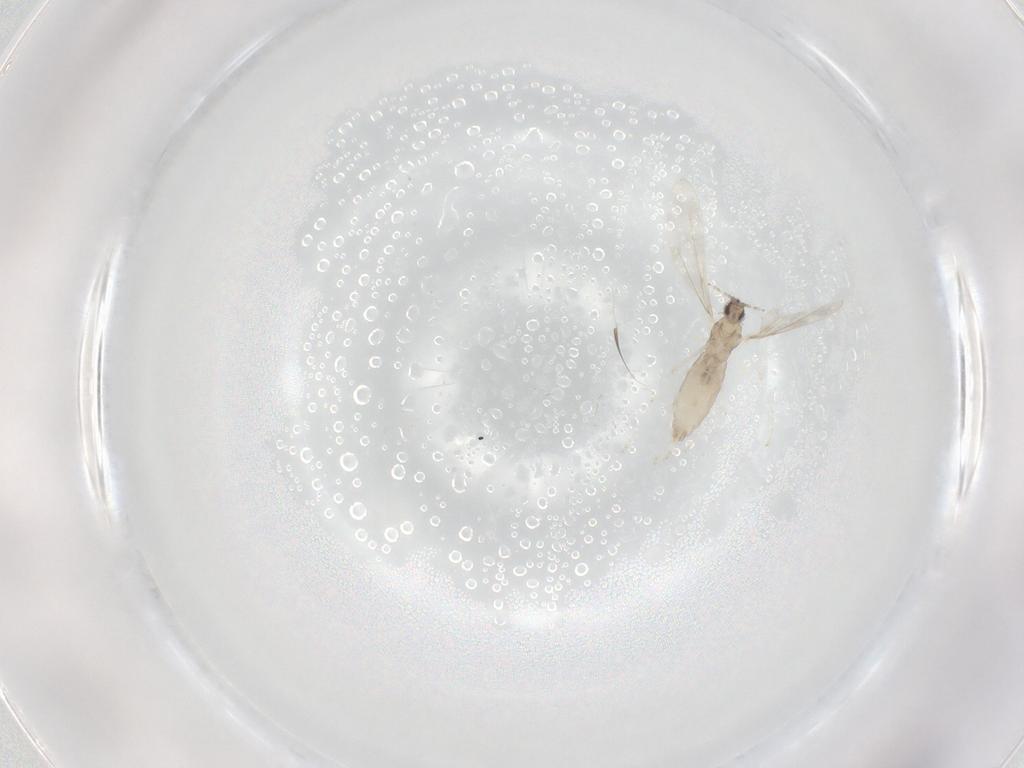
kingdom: Animalia
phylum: Arthropoda
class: Insecta
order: Diptera
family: Cecidomyiidae
